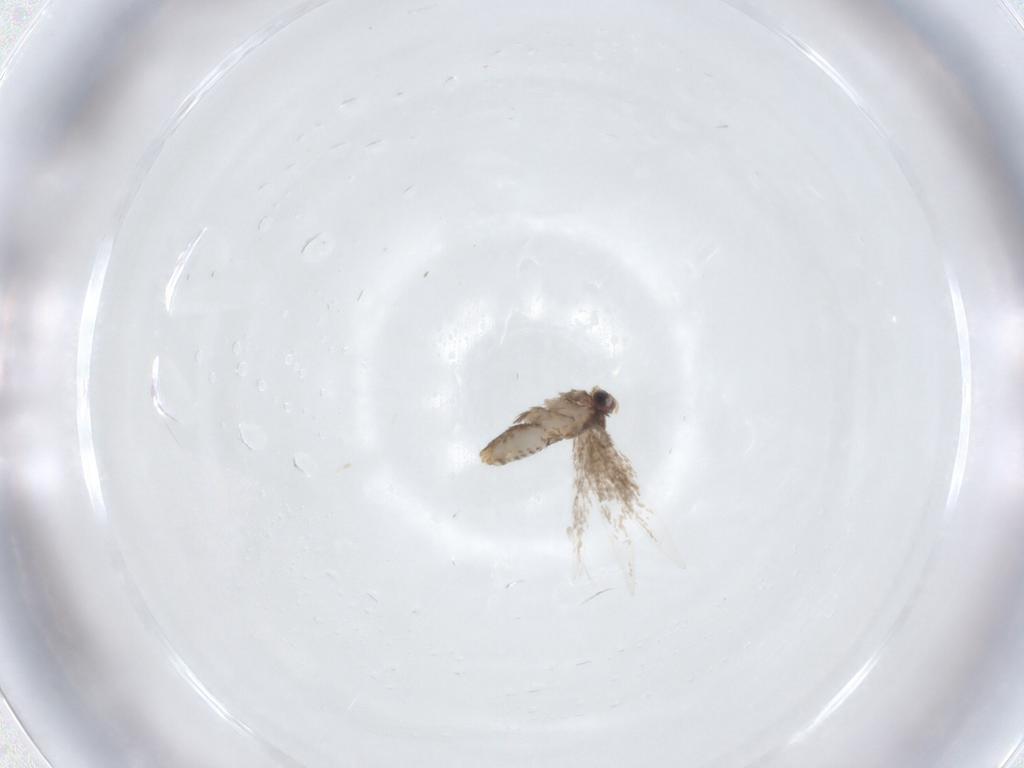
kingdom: Animalia
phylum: Arthropoda
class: Insecta
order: Lepidoptera
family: Nepticulidae
